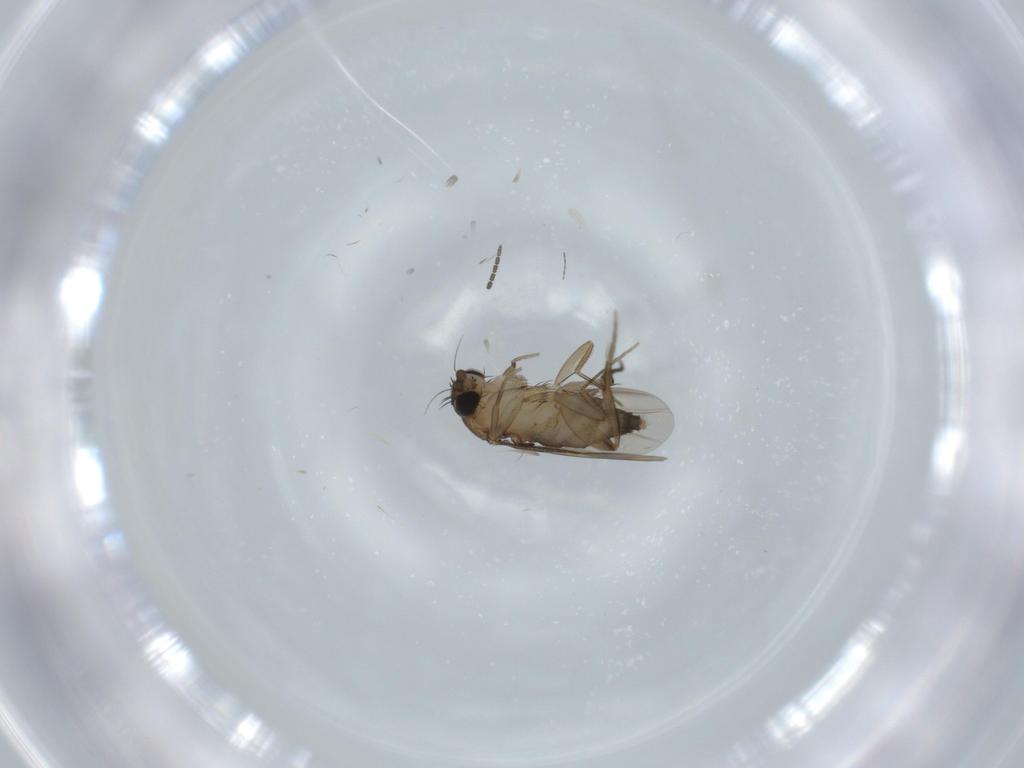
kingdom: Animalia
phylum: Arthropoda
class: Insecta
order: Diptera
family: Phoridae
